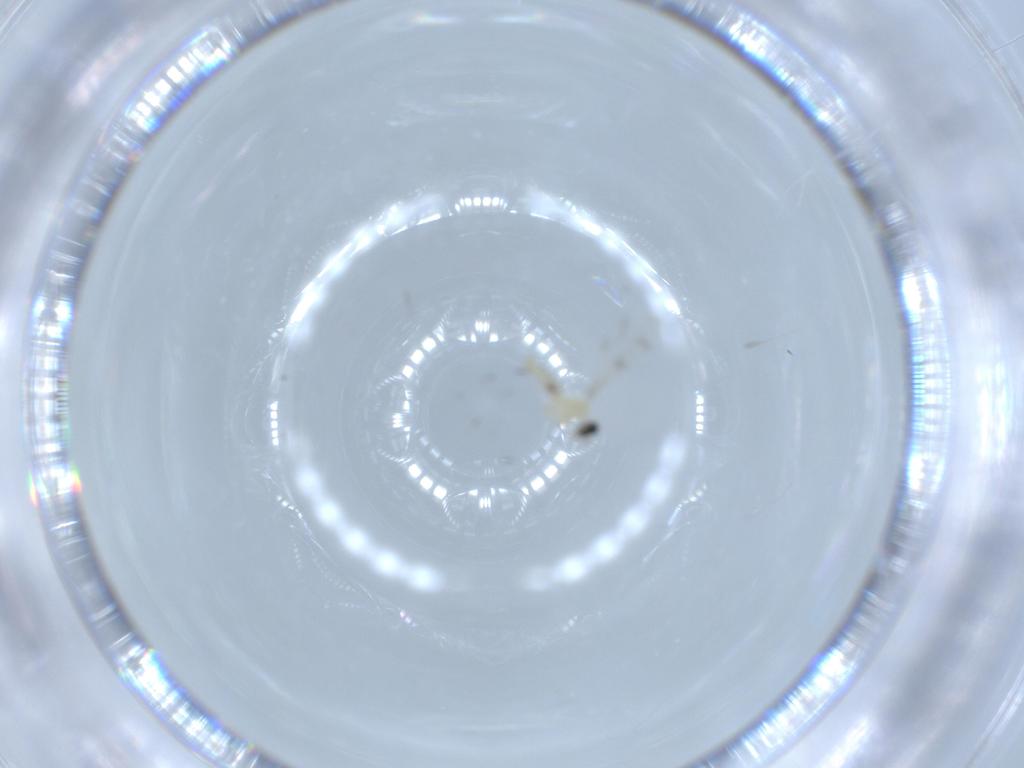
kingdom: Animalia
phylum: Arthropoda
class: Insecta
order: Diptera
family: Cecidomyiidae
